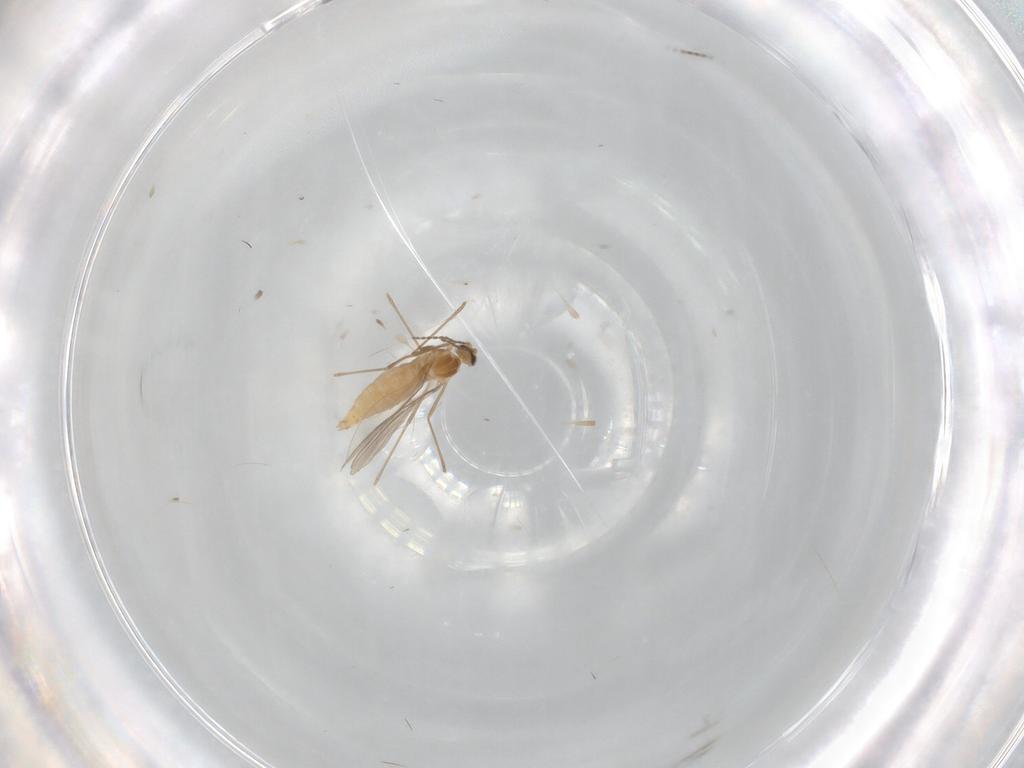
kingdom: Animalia
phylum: Arthropoda
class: Insecta
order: Diptera
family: Cecidomyiidae
